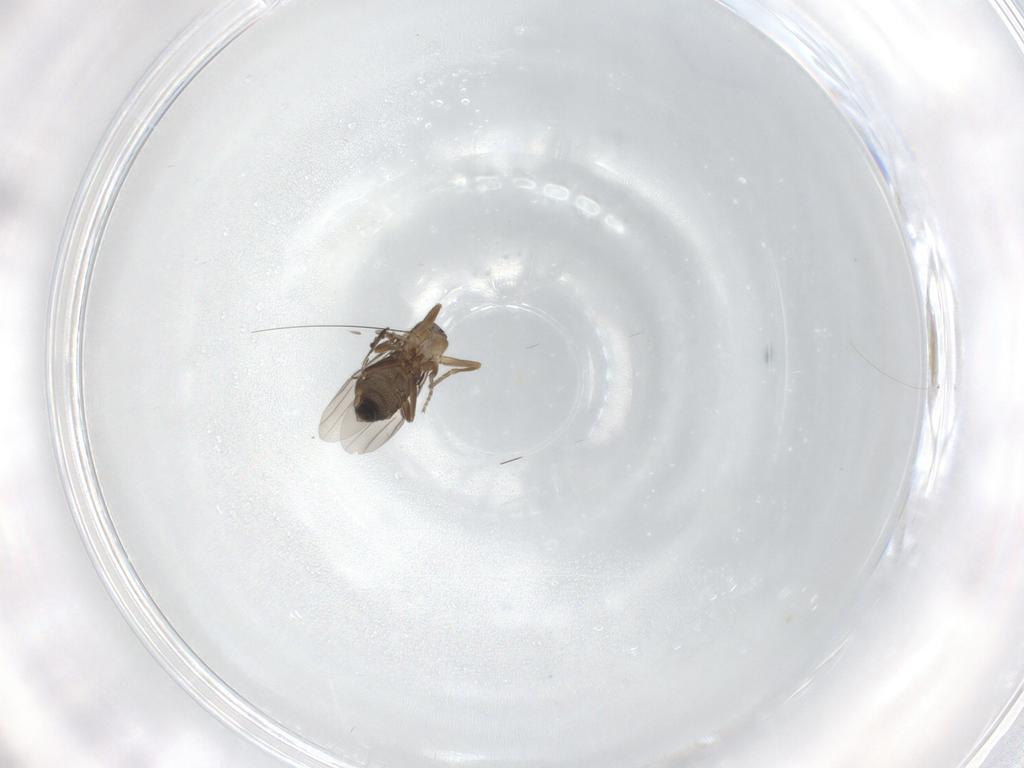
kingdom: Animalia
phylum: Arthropoda
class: Insecta
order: Diptera
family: Phoridae
